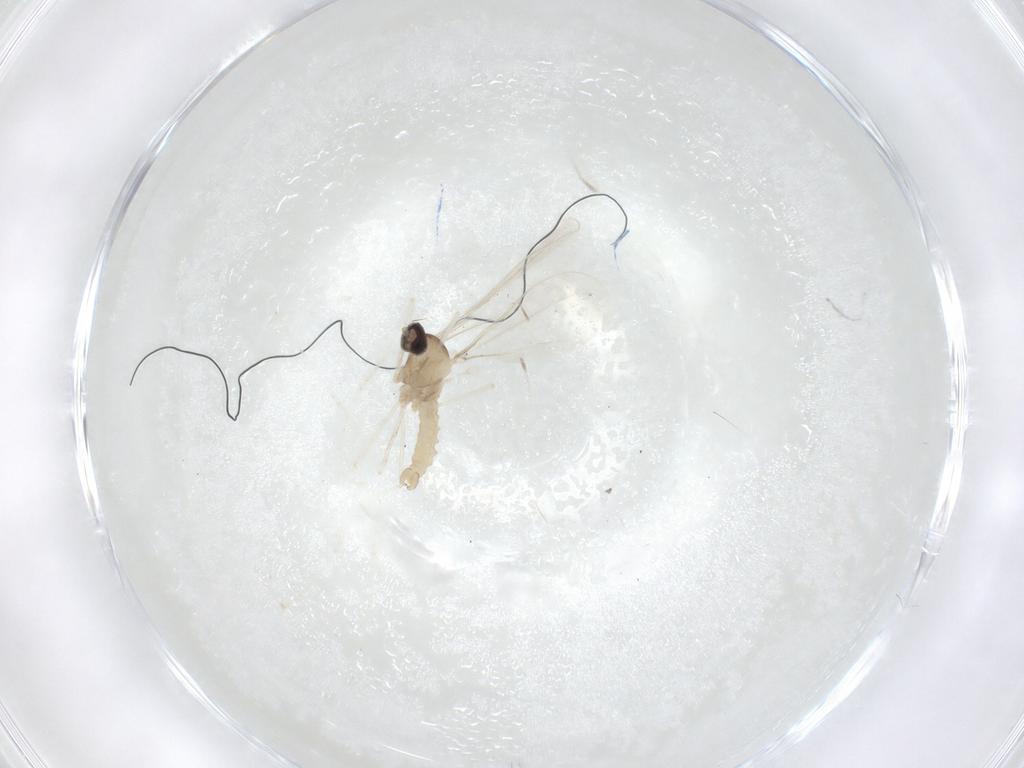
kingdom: Animalia
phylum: Arthropoda
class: Insecta
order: Diptera
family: Cecidomyiidae
